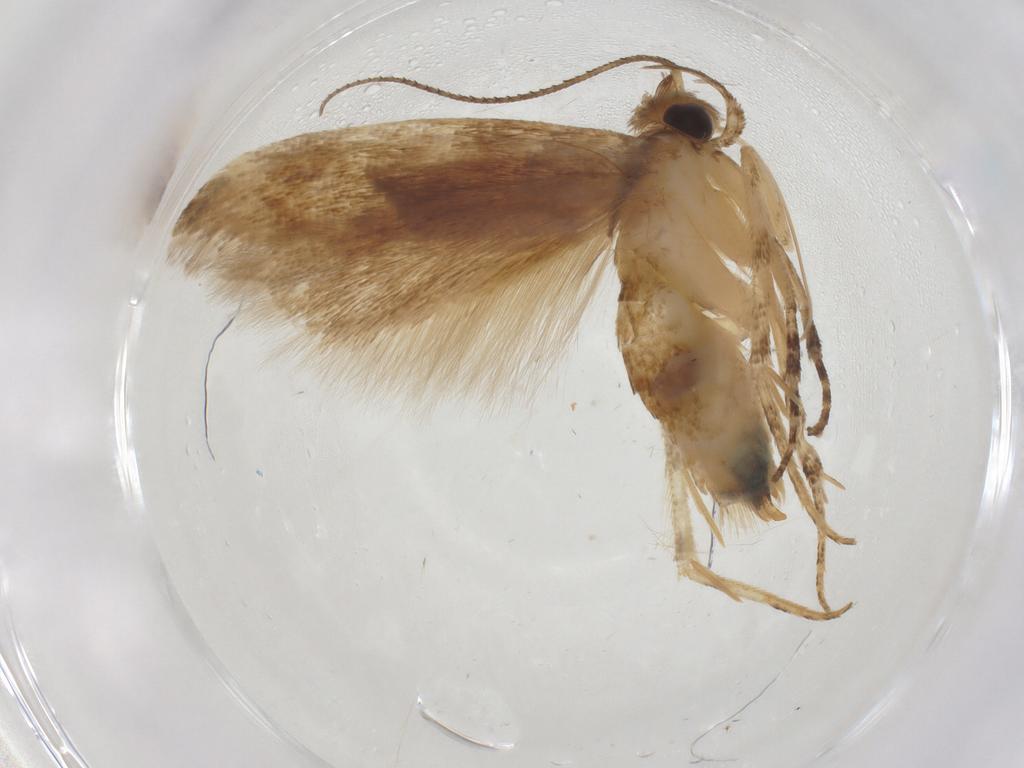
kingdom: Animalia
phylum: Arthropoda
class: Insecta
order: Lepidoptera
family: Gelechiidae
